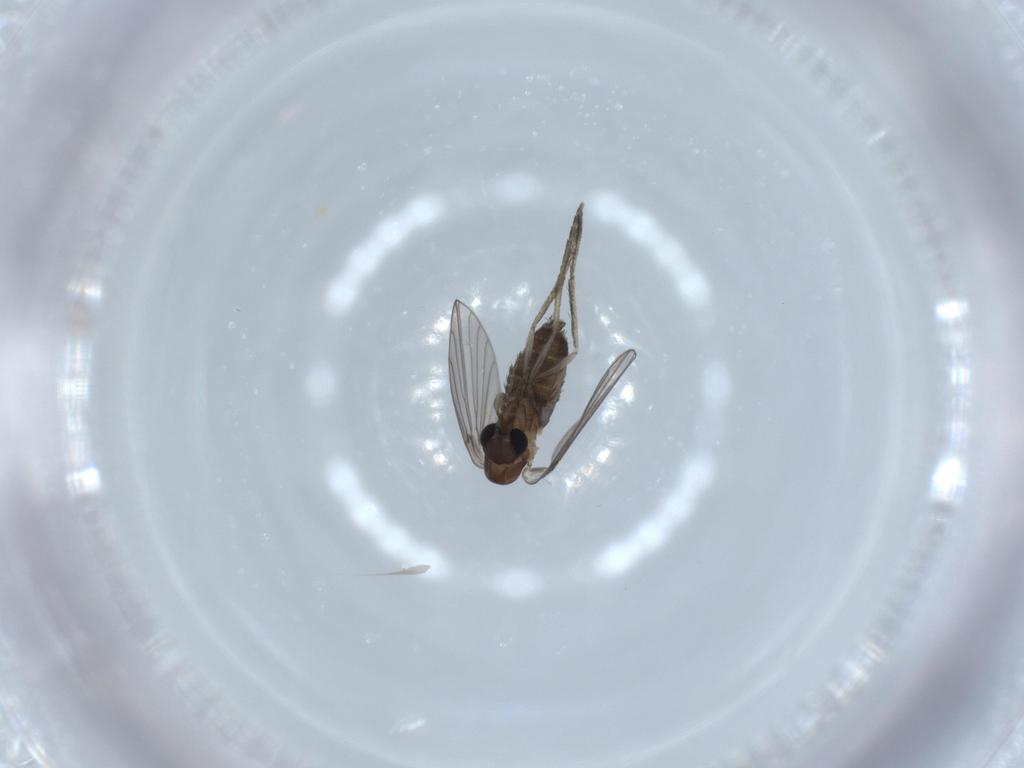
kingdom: Animalia
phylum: Arthropoda
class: Insecta
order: Diptera
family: Psychodidae
